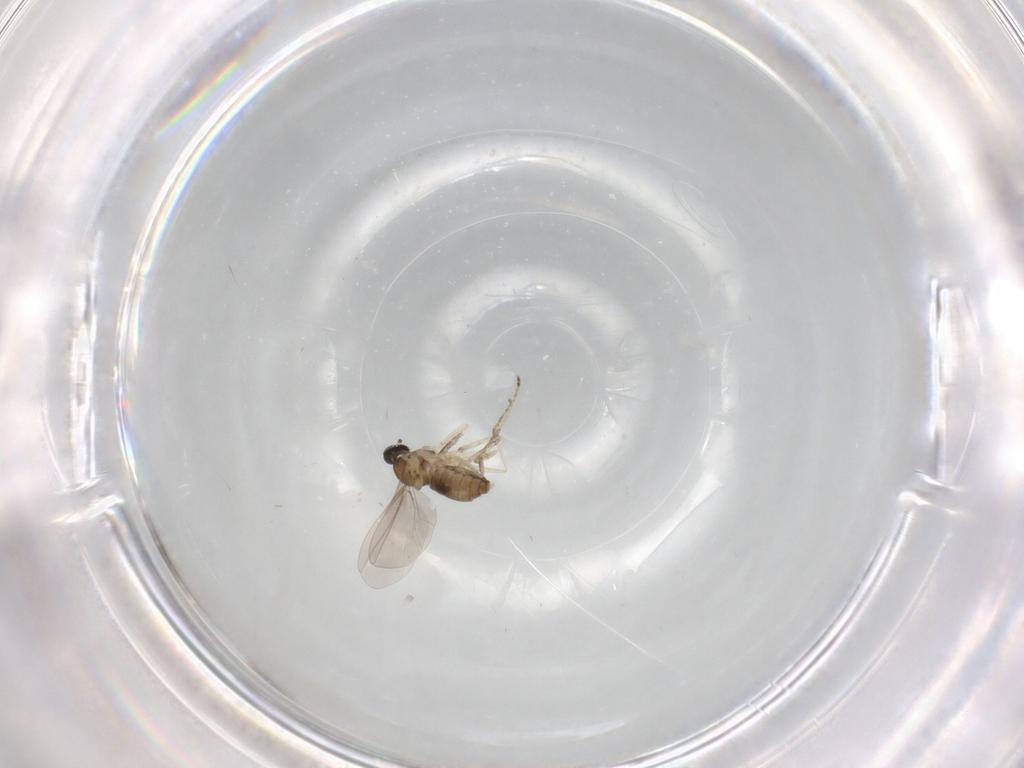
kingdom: Animalia
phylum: Arthropoda
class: Insecta
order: Diptera
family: Cecidomyiidae
